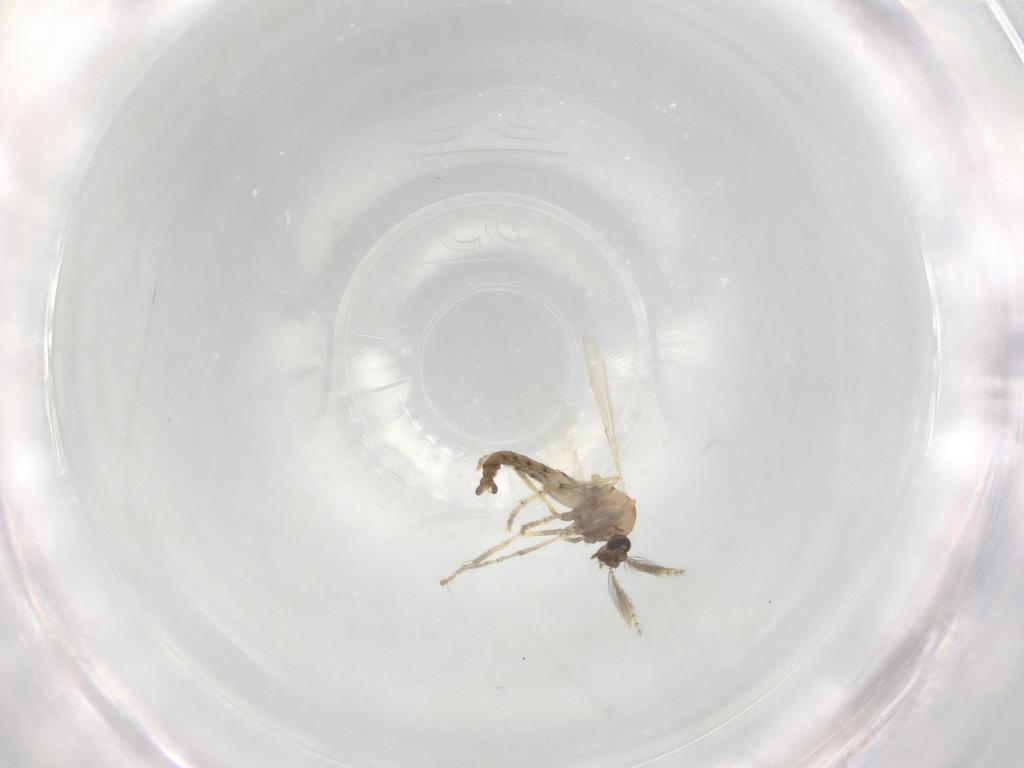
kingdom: Animalia
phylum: Arthropoda
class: Insecta
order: Diptera
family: Ceratopogonidae
